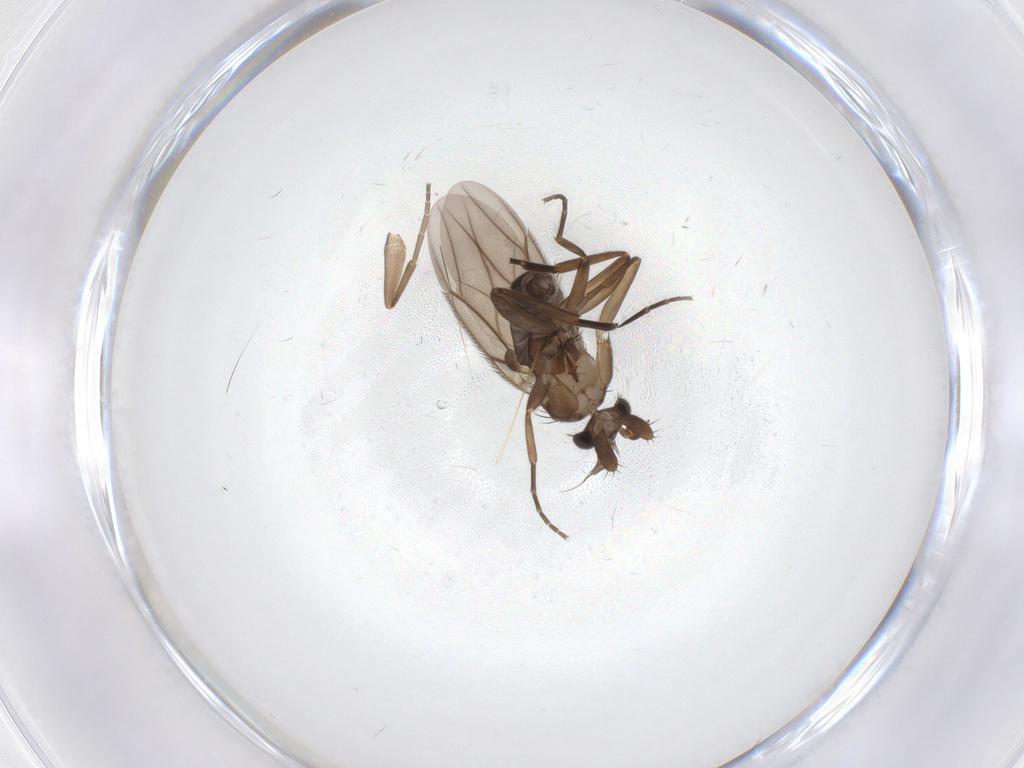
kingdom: Animalia
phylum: Arthropoda
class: Insecta
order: Diptera
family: Phoridae
